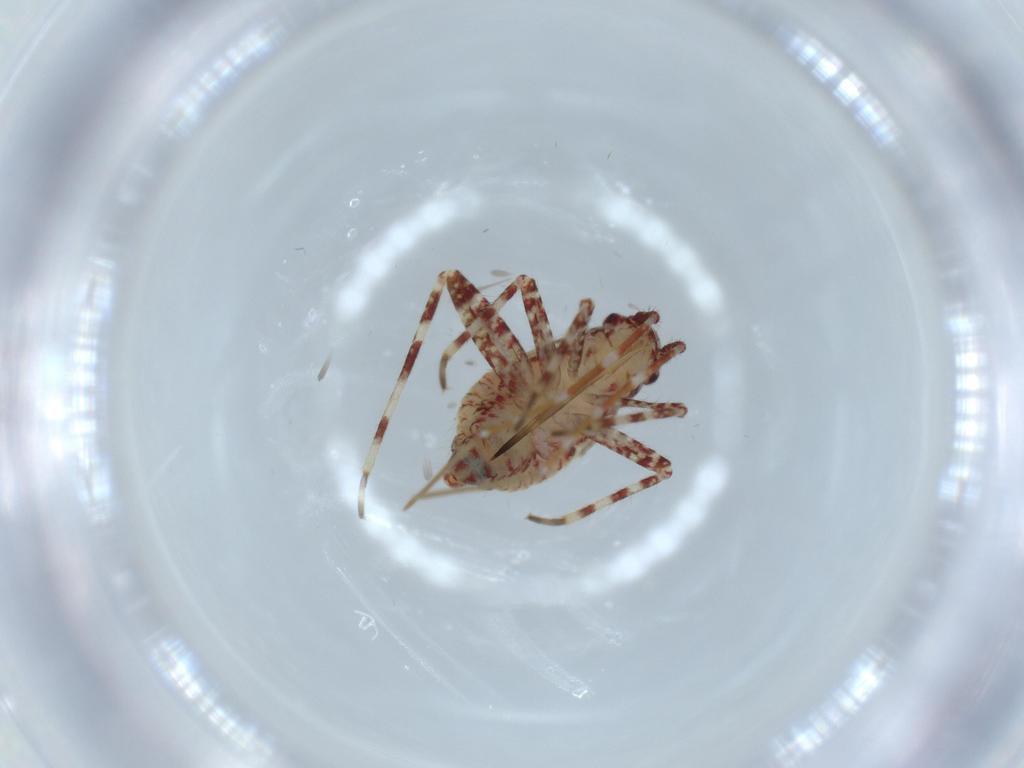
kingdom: Animalia
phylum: Arthropoda
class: Insecta
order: Hemiptera
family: Miridae
